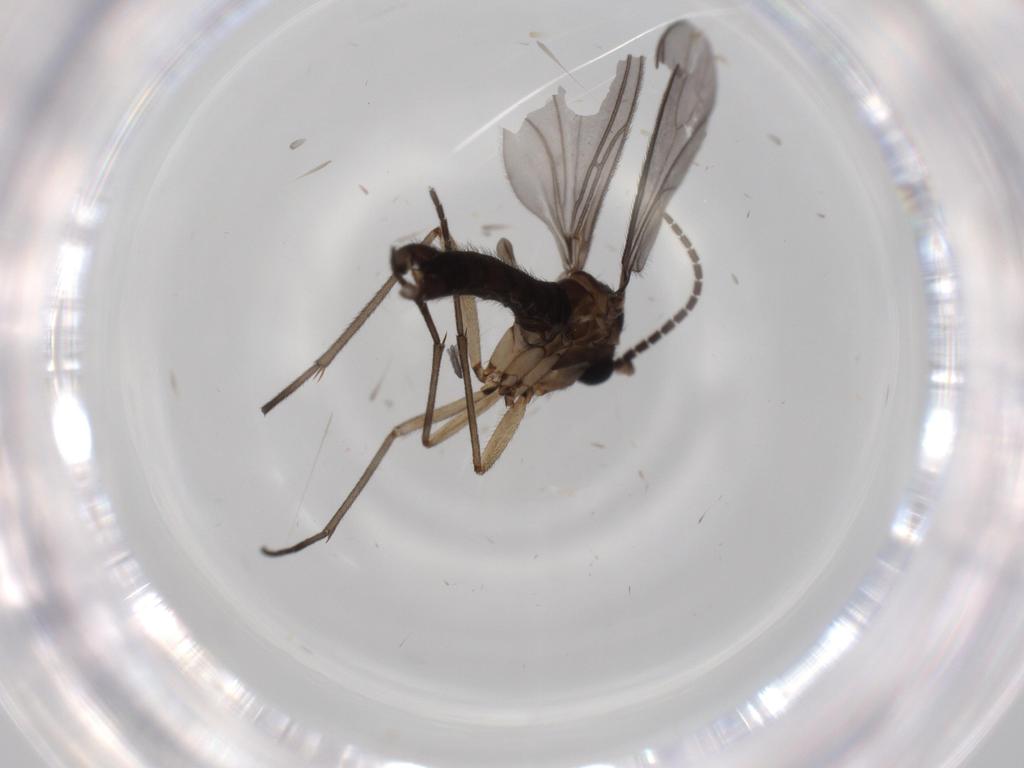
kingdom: Animalia
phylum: Arthropoda
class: Insecta
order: Diptera
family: Sciaridae
